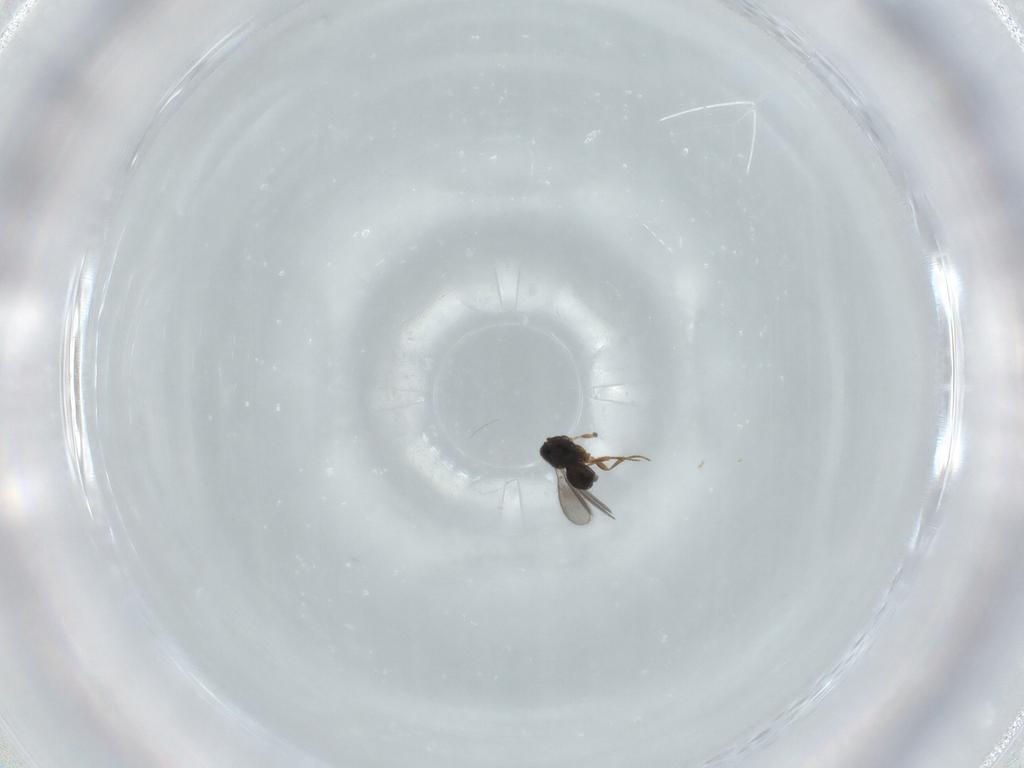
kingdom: Animalia
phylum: Arthropoda
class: Insecta
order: Hymenoptera
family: Scelionidae
